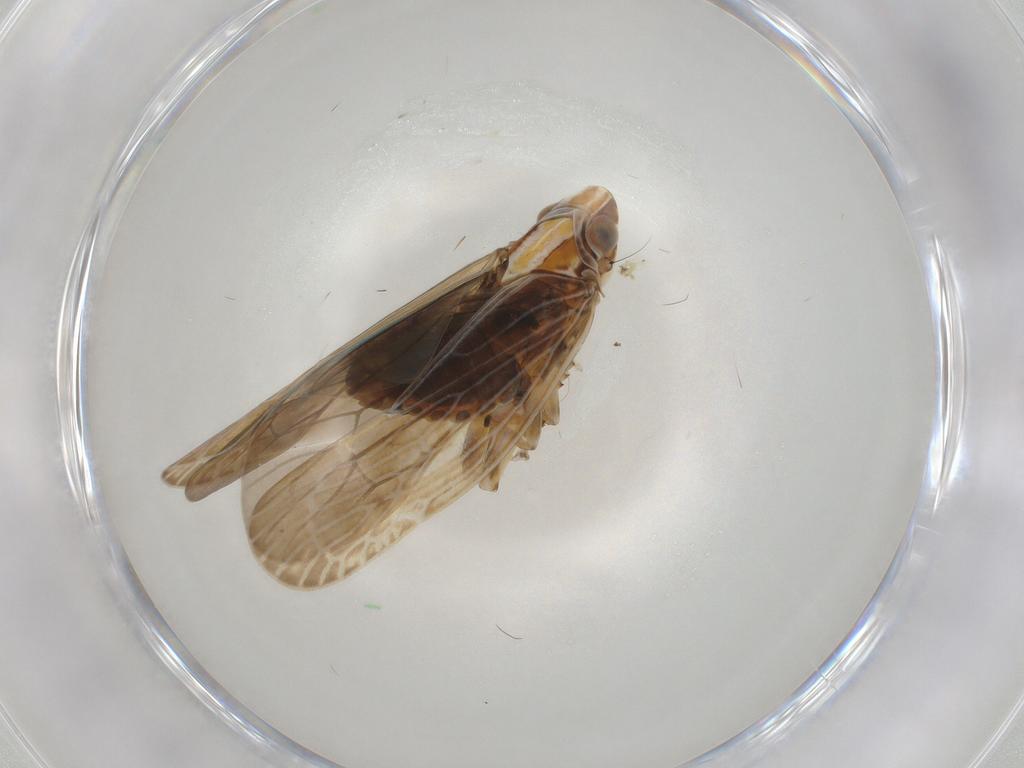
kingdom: Animalia
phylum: Arthropoda
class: Insecta
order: Hemiptera
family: Achilidae
